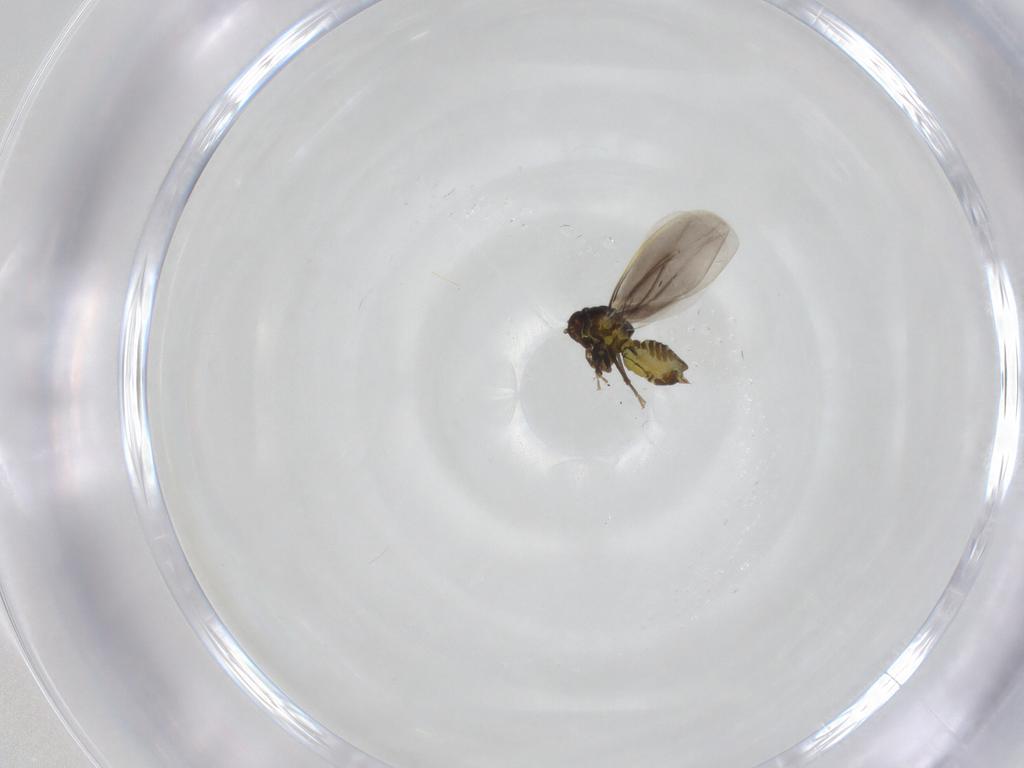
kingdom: Animalia
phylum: Arthropoda
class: Insecta
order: Hemiptera
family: Aleyrodidae
